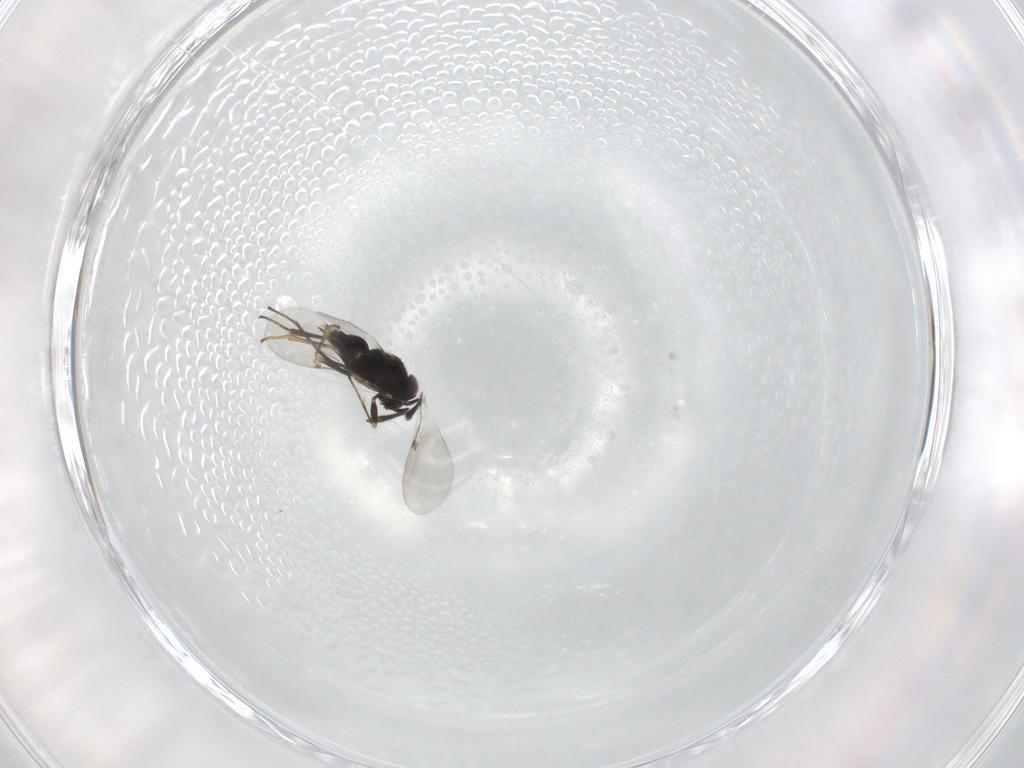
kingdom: Animalia
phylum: Arthropoda
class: Insecta
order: Hymenoptera
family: Encyrtidae
